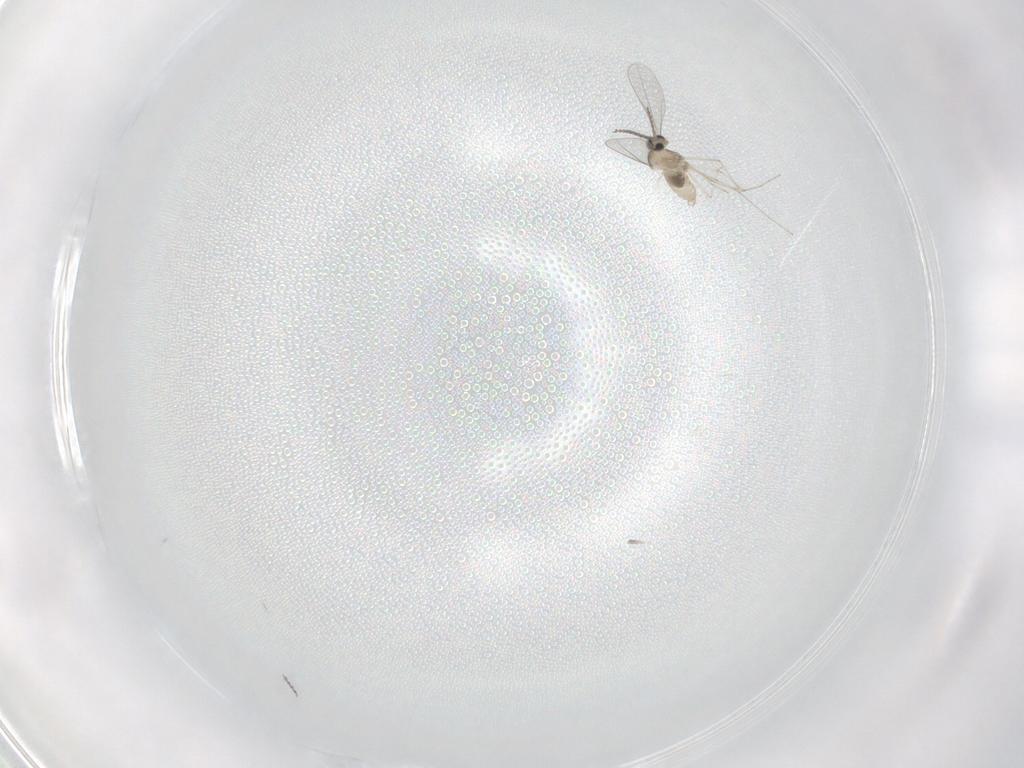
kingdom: Animalia
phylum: Arthropoda
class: Insecta
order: Diptera
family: Cecidomyiidae
